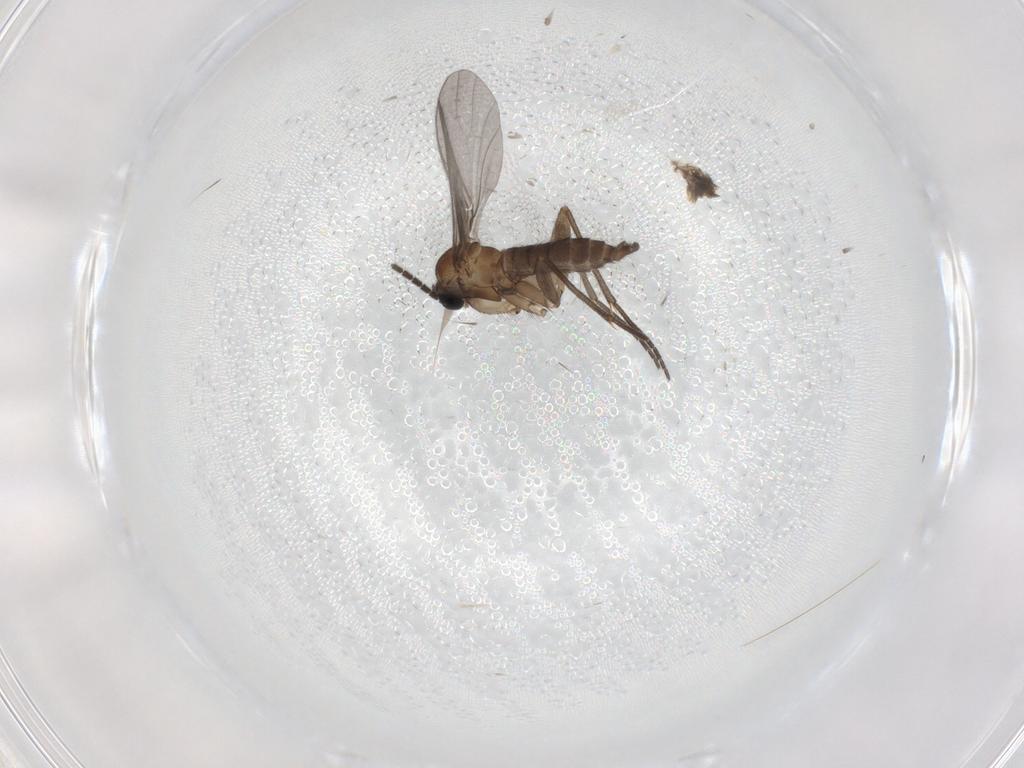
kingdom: Animalia
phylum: Arthropoda
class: Insecta
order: Diptera
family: Sciaridae
